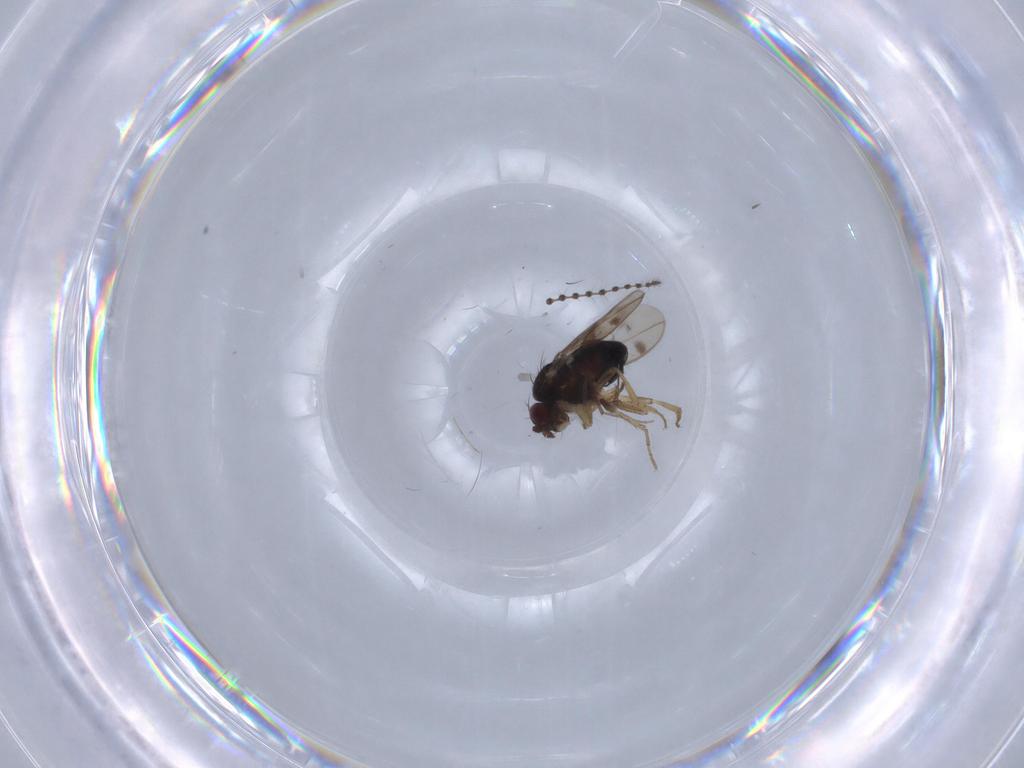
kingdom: Animalia
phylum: Arthropoda
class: Insecta
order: Diptera
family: Sphaeroceridae
